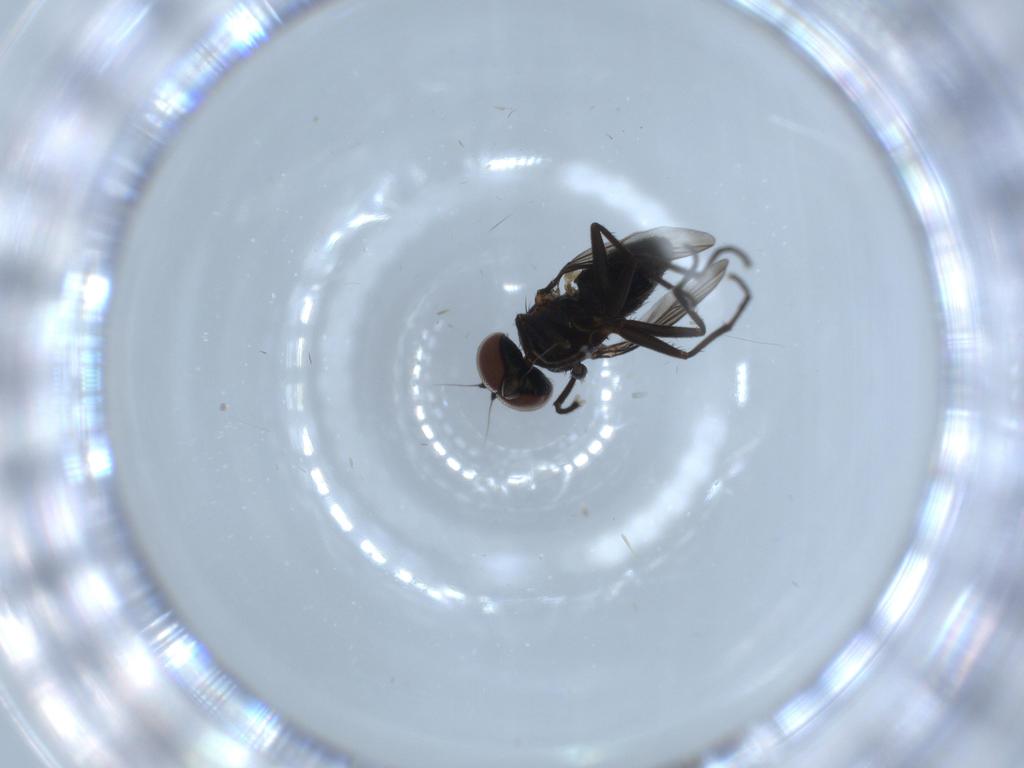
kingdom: Animalia
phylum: Arthropoda
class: Insecta
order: Diptera
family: Dolichopodidae
